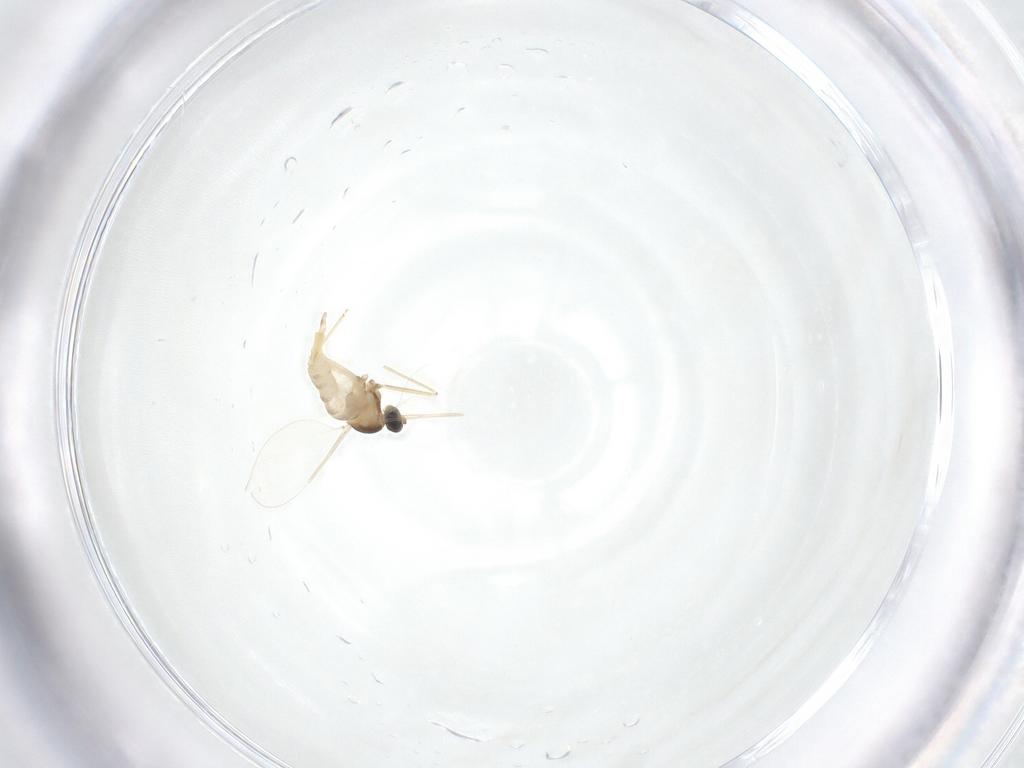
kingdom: Animalia
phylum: Arthropoda
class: Insecta
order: Diptera
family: Cecidomyiidae
